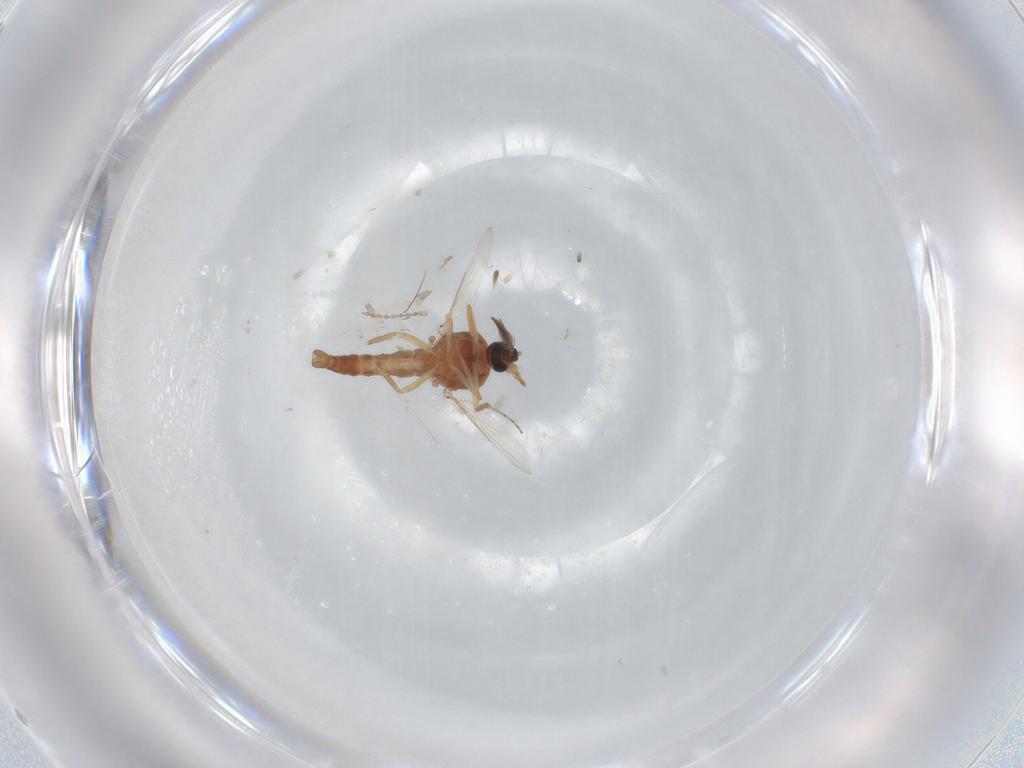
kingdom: Animalia
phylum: Arthropoda
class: Insecta
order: Diptera
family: Cecidomyiidae
